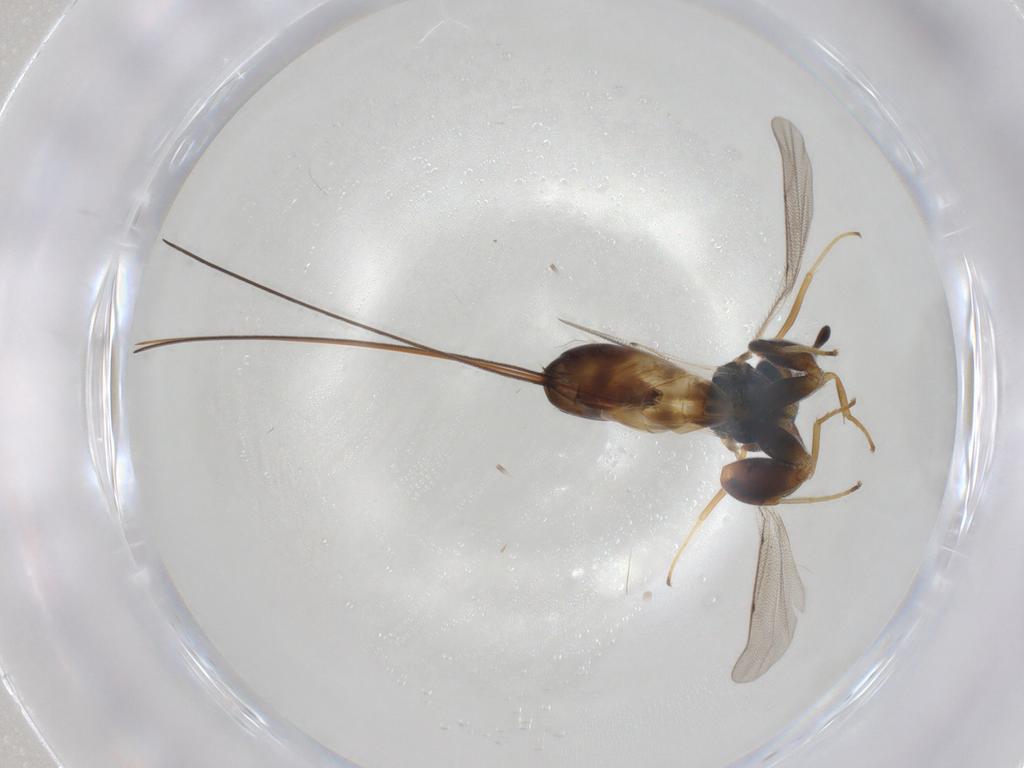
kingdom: Animalia
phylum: Arthropoda
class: Insecta
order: Hymenoptera
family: Torymidae
